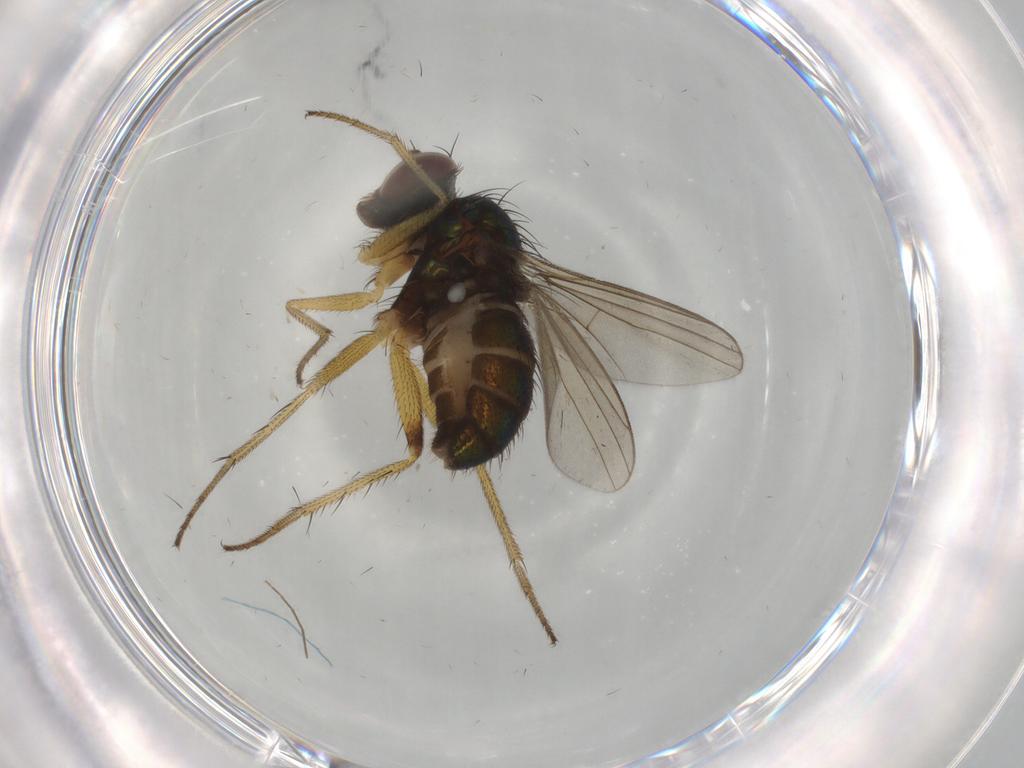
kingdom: Animalia
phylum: Arthropoda
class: Insecta
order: Diptera
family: Dolichopodidae
